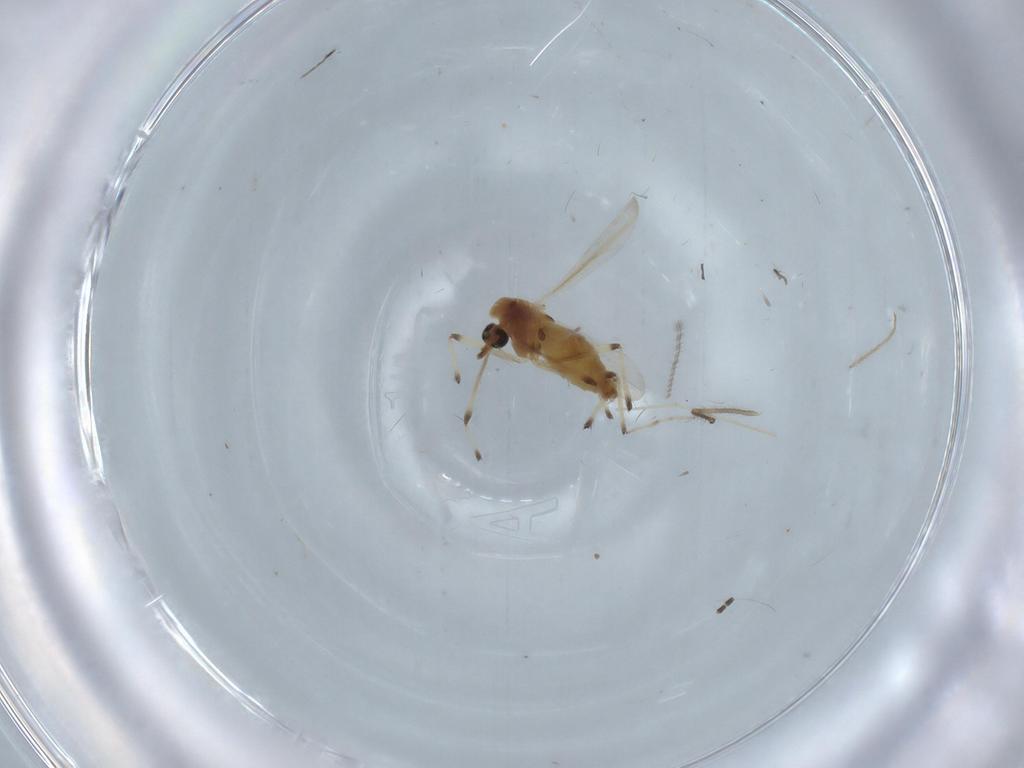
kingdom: Animalia
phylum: Arthropoda
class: Insecta
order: Diptera
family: Chironomidae
